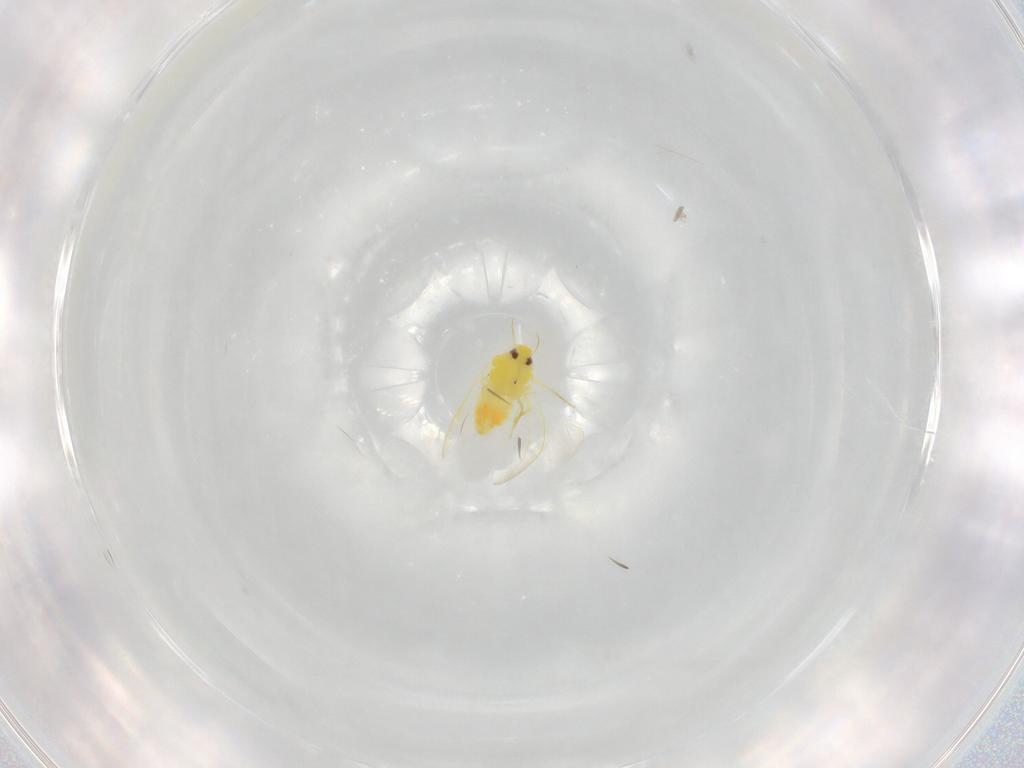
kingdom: Animalia
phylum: Arthropoda
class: Insecta
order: Hemiptera
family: Aleyrodidae
